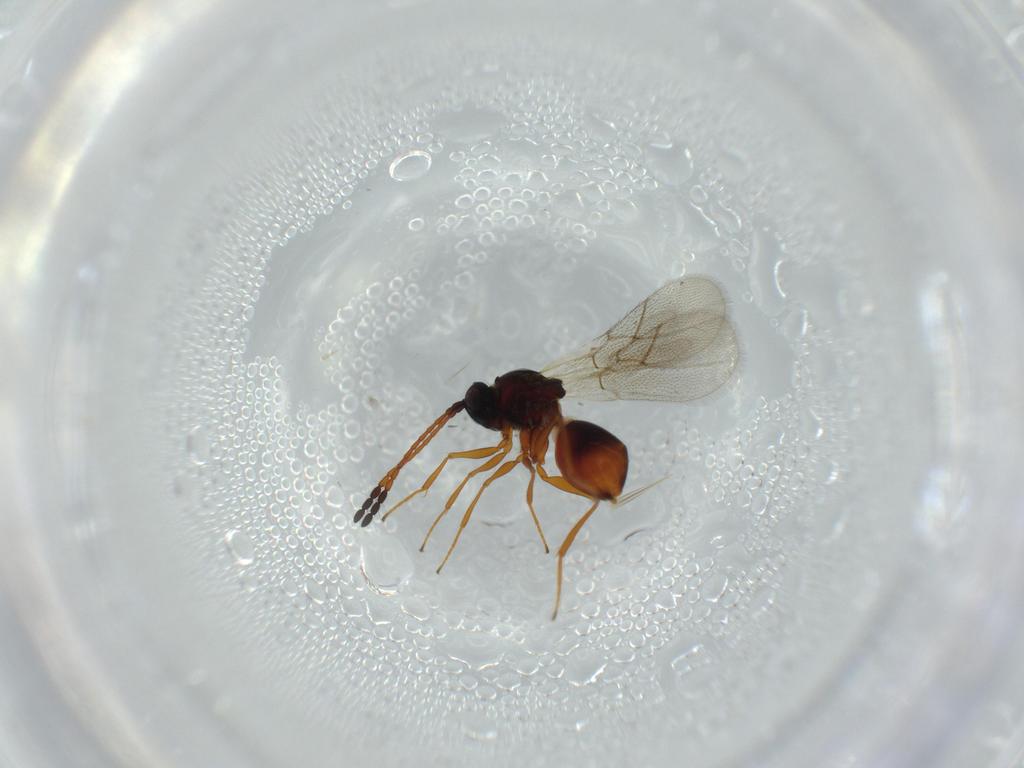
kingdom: Animalia
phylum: Arthropoda
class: Insecta
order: Hymenoptera
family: Figitidae
